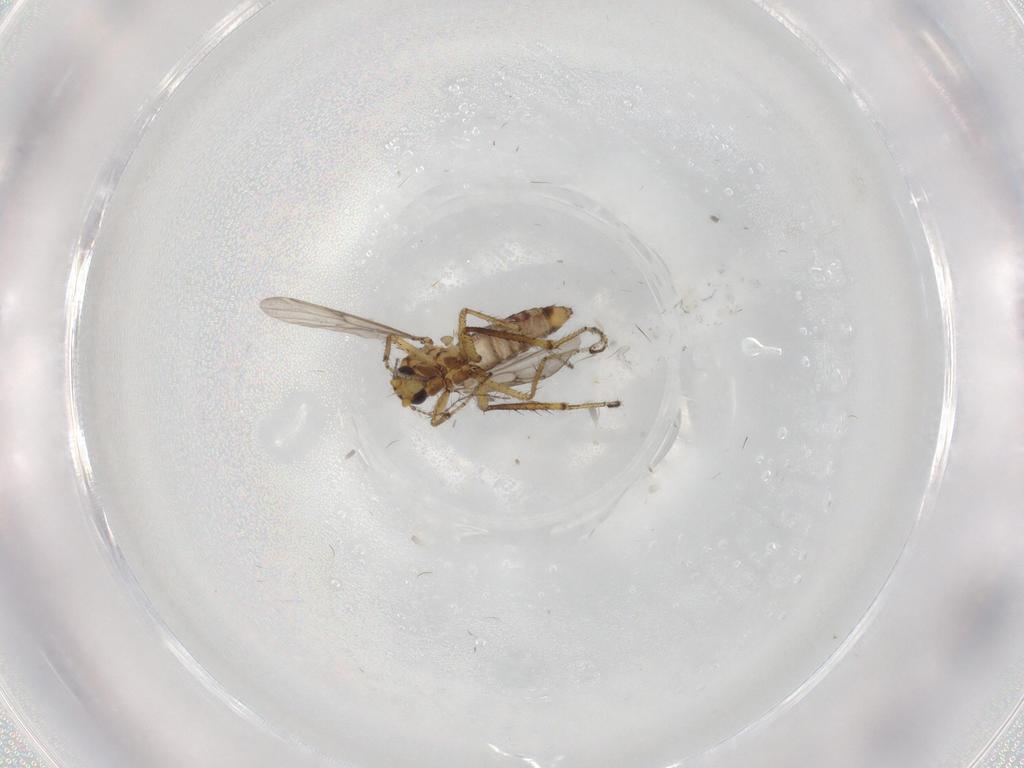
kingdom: Animalia
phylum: Arthropoda
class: Insecta
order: Diptera
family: Ceratopogonidae
